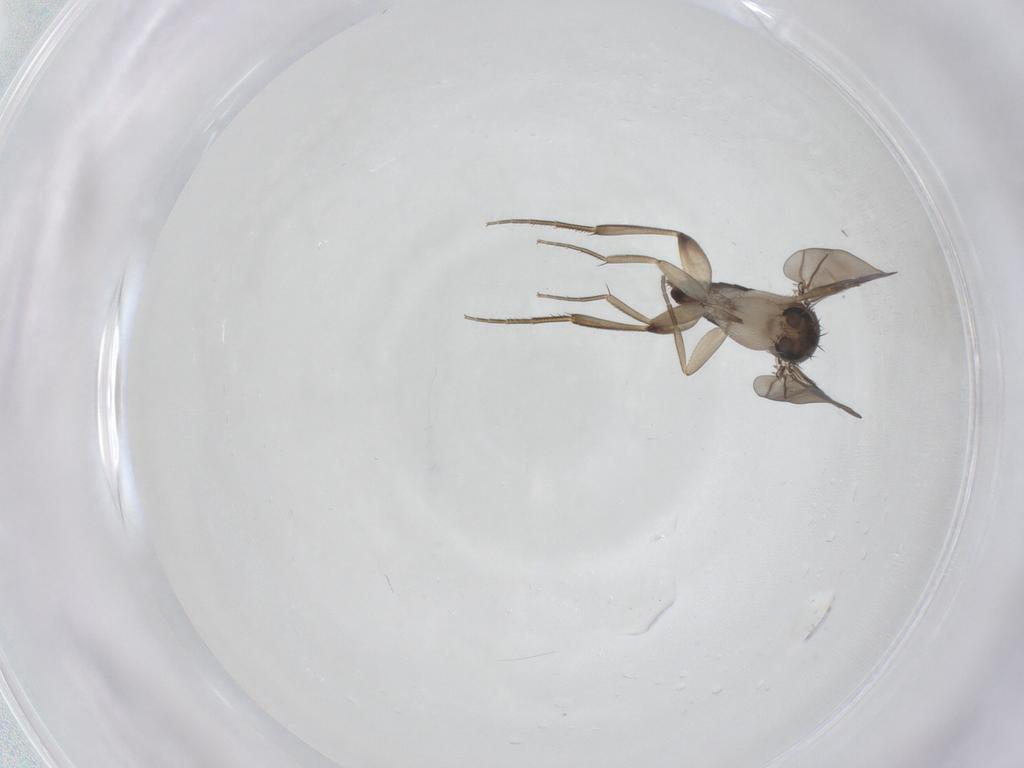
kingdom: Animalia
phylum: Arthropoda
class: Insecta
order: Diptera
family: Phoridae
